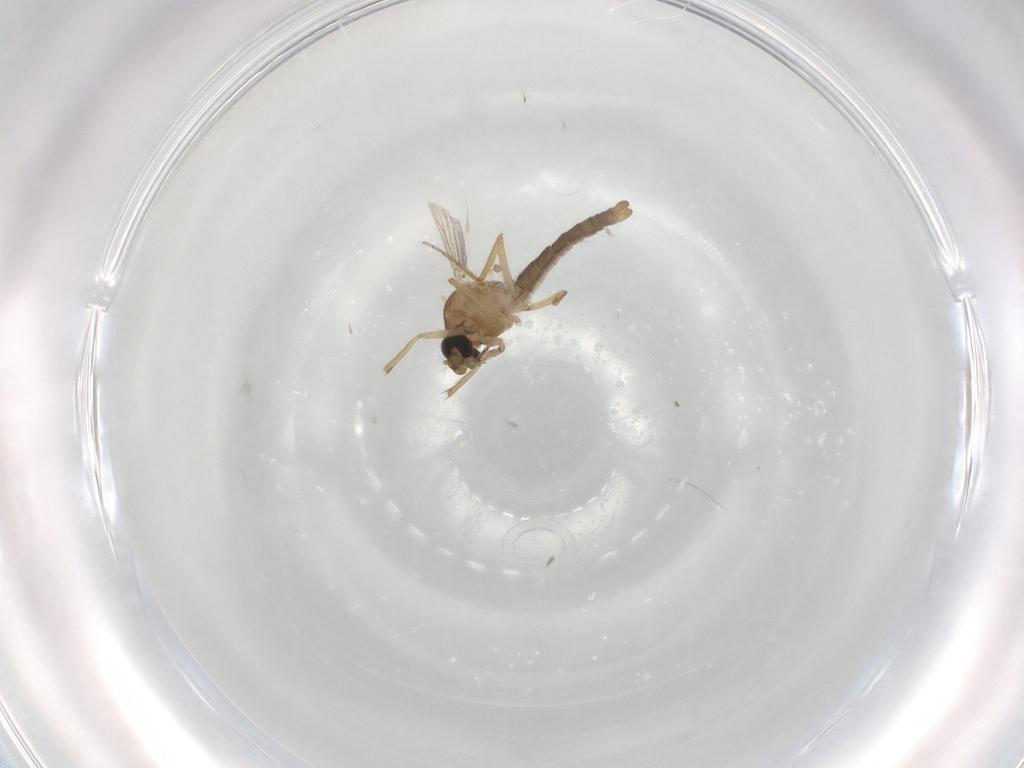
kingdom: Animalia
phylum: Arthropoda
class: Insecta
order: Diptera
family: Ceratopogonidae
